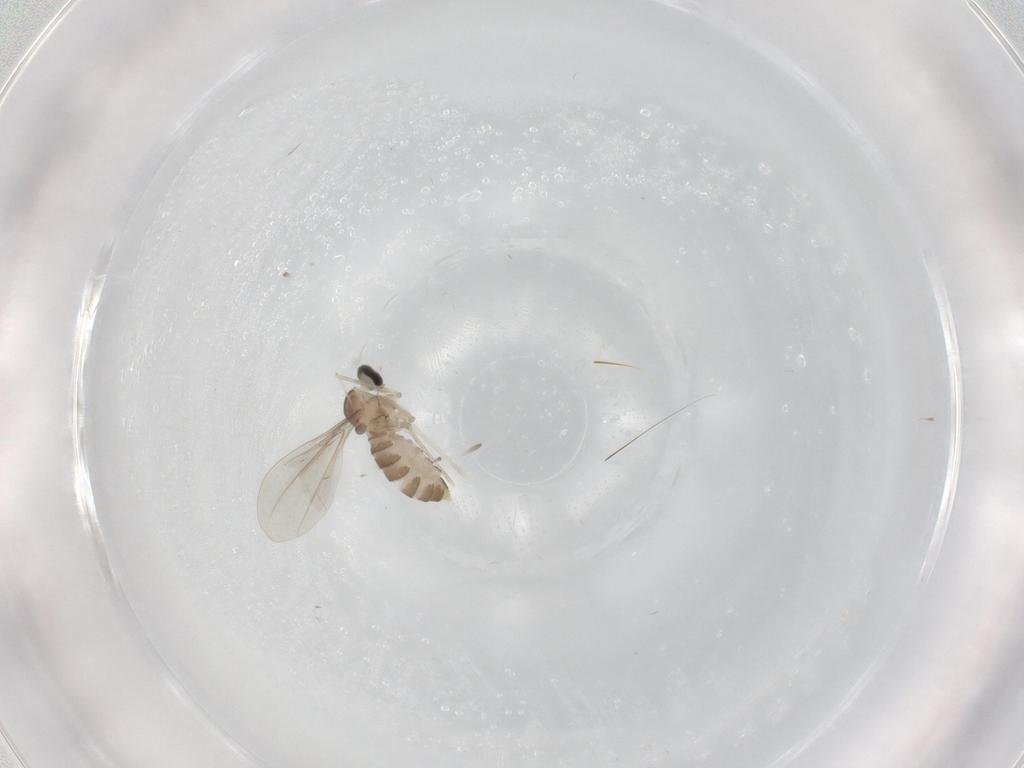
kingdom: Animalia
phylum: Arthropoda
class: Insecta
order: Diptera
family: Cecidomyiidae
